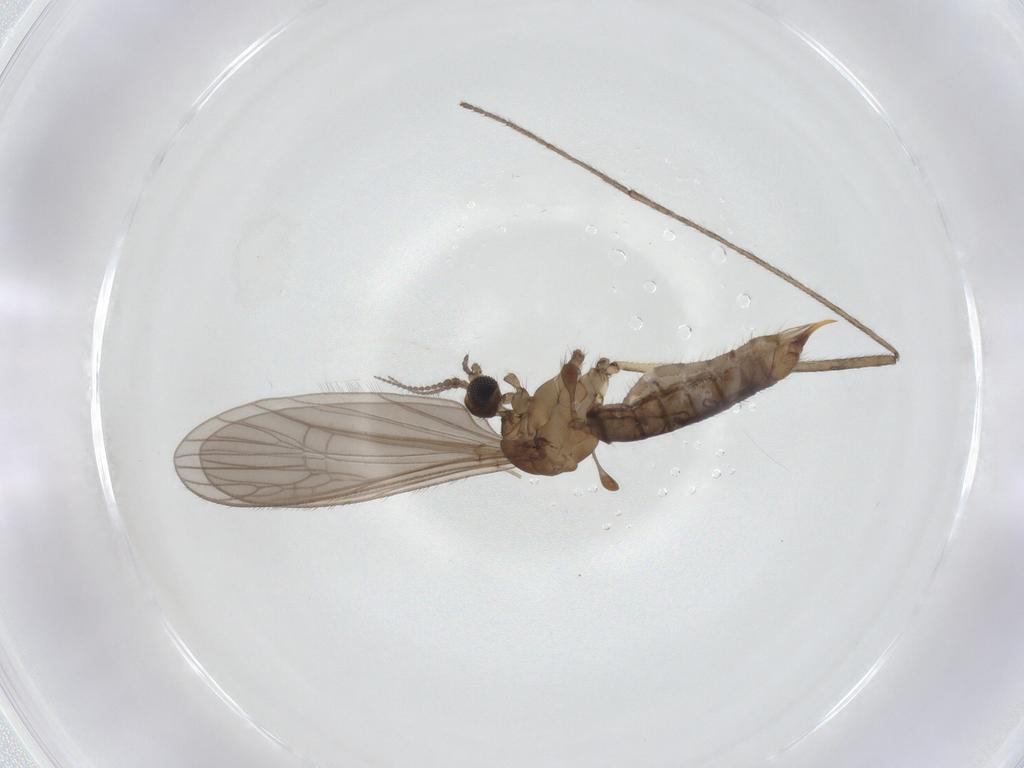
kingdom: Animalia
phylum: Arthropoda
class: Insecta
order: Diptera
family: Limoniidae
